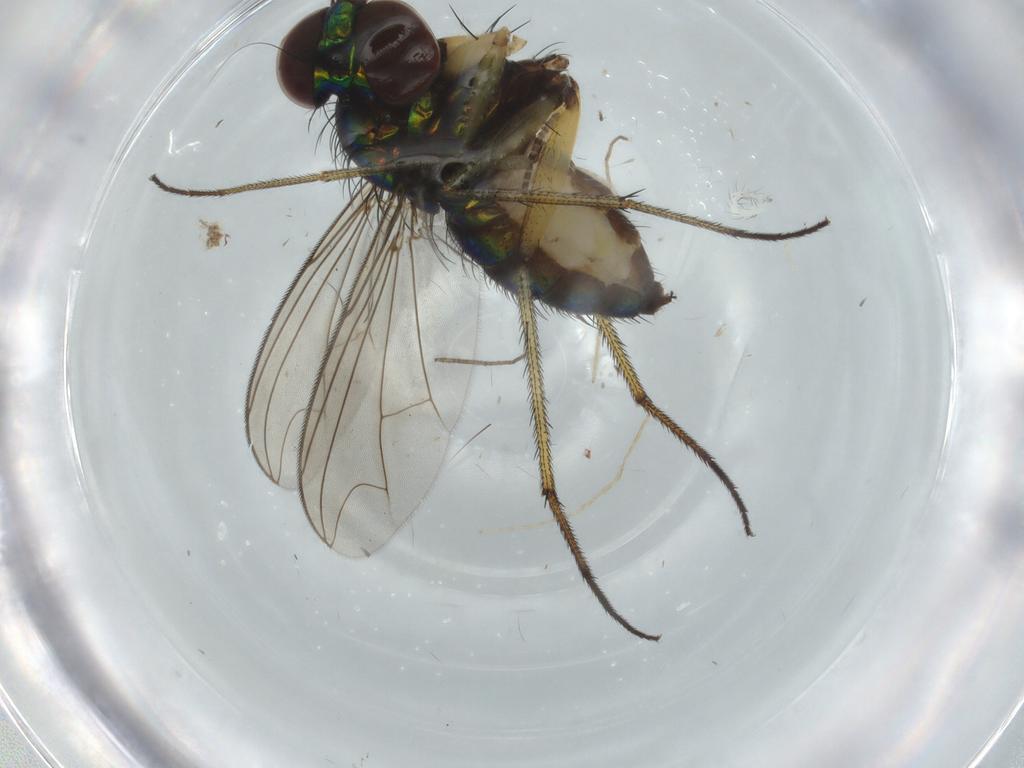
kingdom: Animalia
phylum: Arthropoda
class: Insecta
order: Diptera
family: Dolichopodidae
